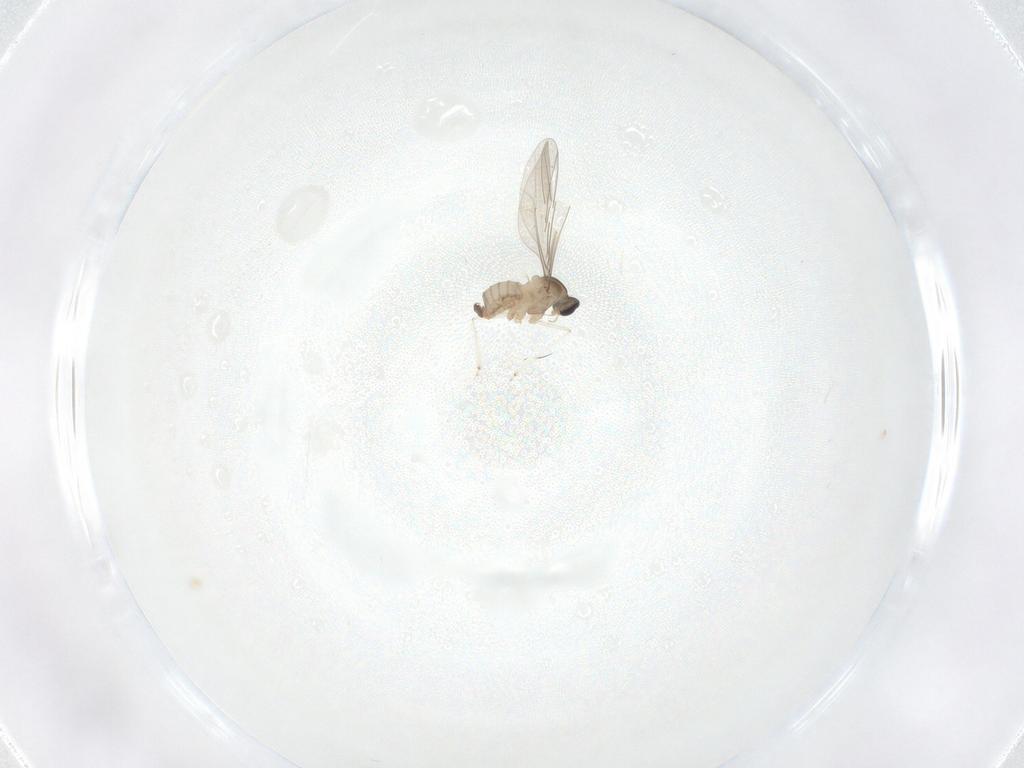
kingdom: Animalia
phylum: Arthropoda
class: Insecta
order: Diptera
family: Cecidomyiidae
